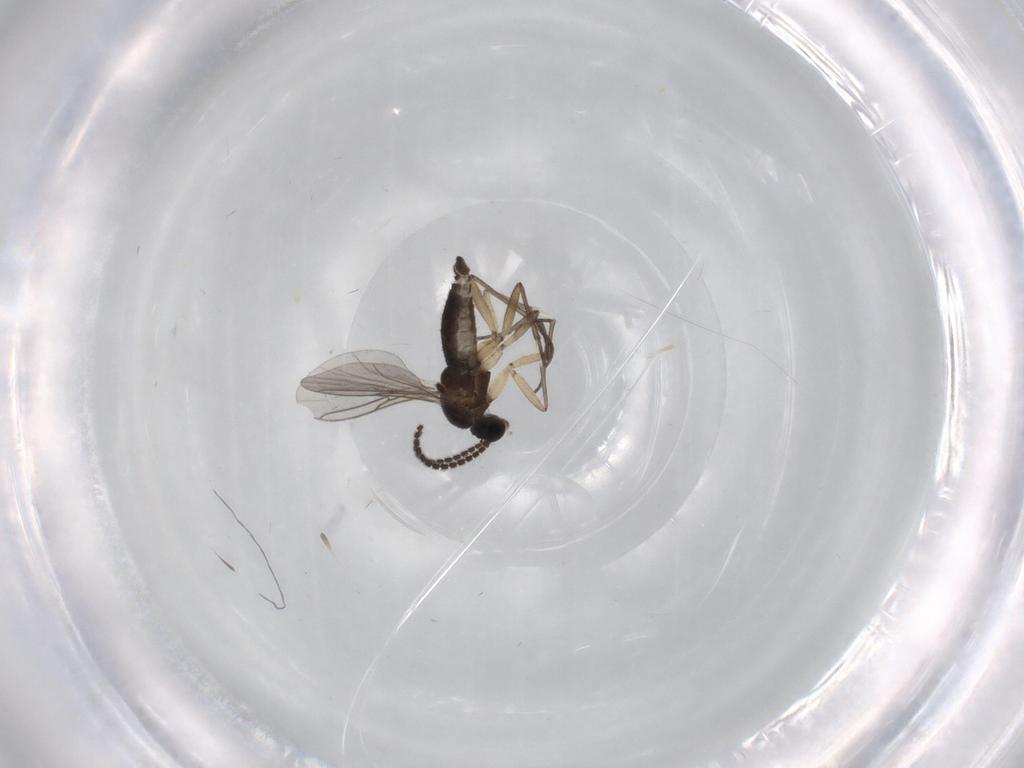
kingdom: Animalia
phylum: Arthropoda
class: Insecta
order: Diptera
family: Sciaridae
